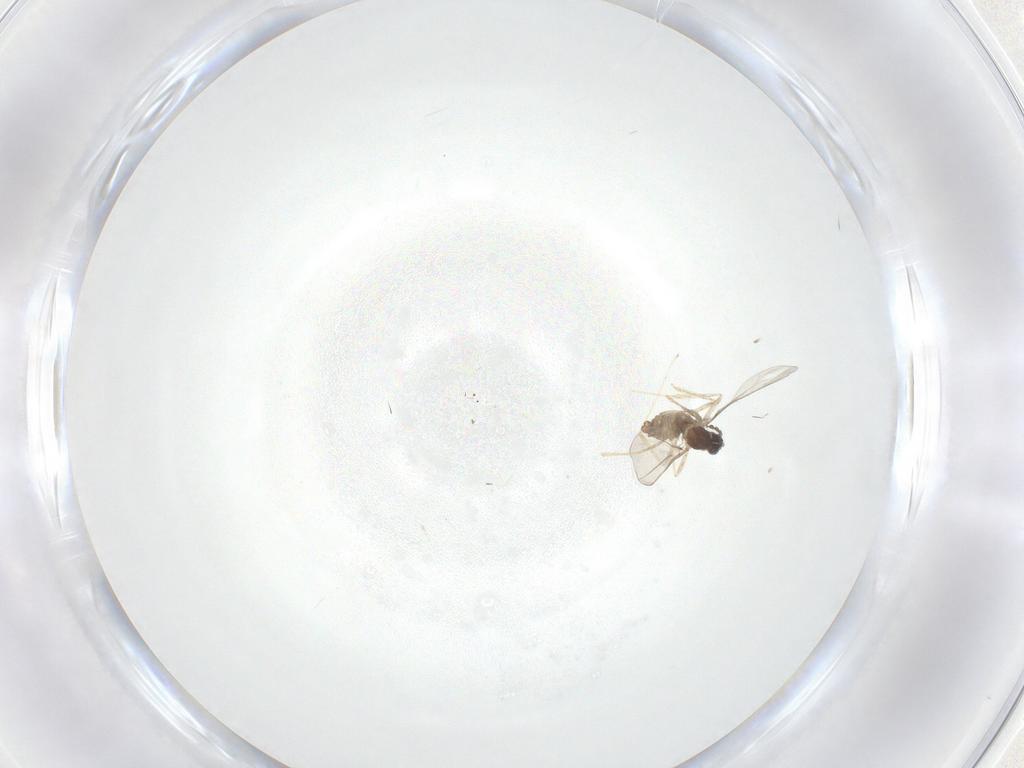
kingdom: Animalia
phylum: Arthropoda
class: Insecta
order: Diptera
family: Cecidomyiidae
